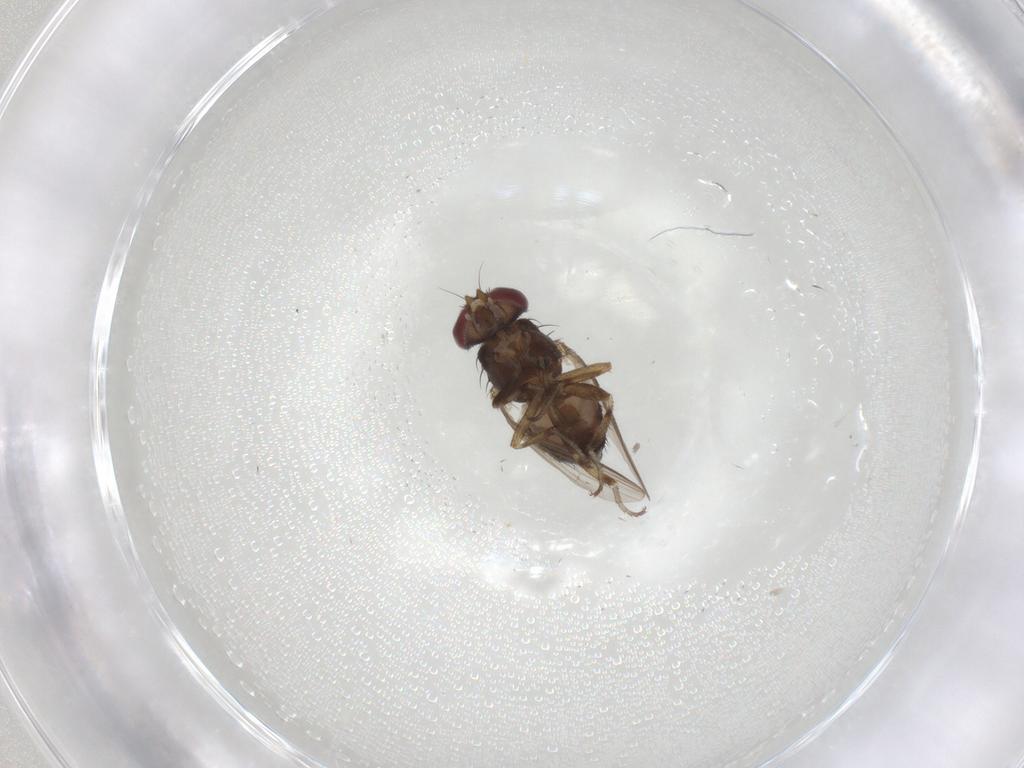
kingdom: Animalia
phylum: Arthropoda
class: Insecta
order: Diptera
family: Heleomyzidae
